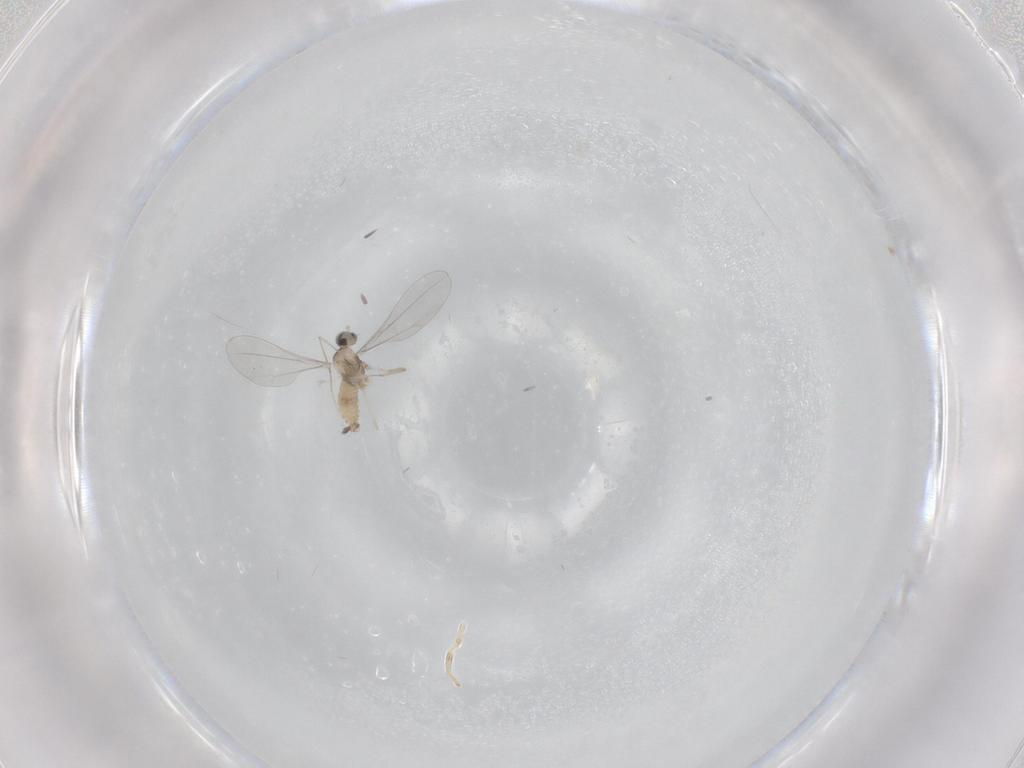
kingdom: Animalia
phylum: Arthropoda
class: Insecta
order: Diptera
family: Cecidomyiidae
